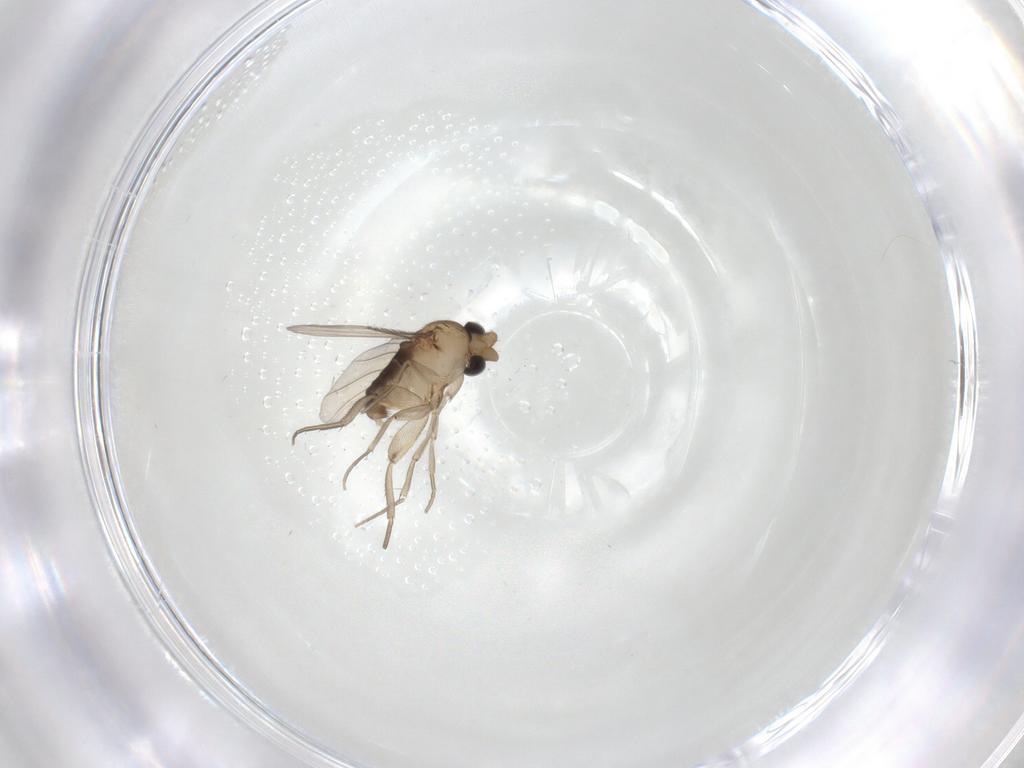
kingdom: Animalia
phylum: Arthropoda
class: Insecta
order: Diptera
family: Phoridae
